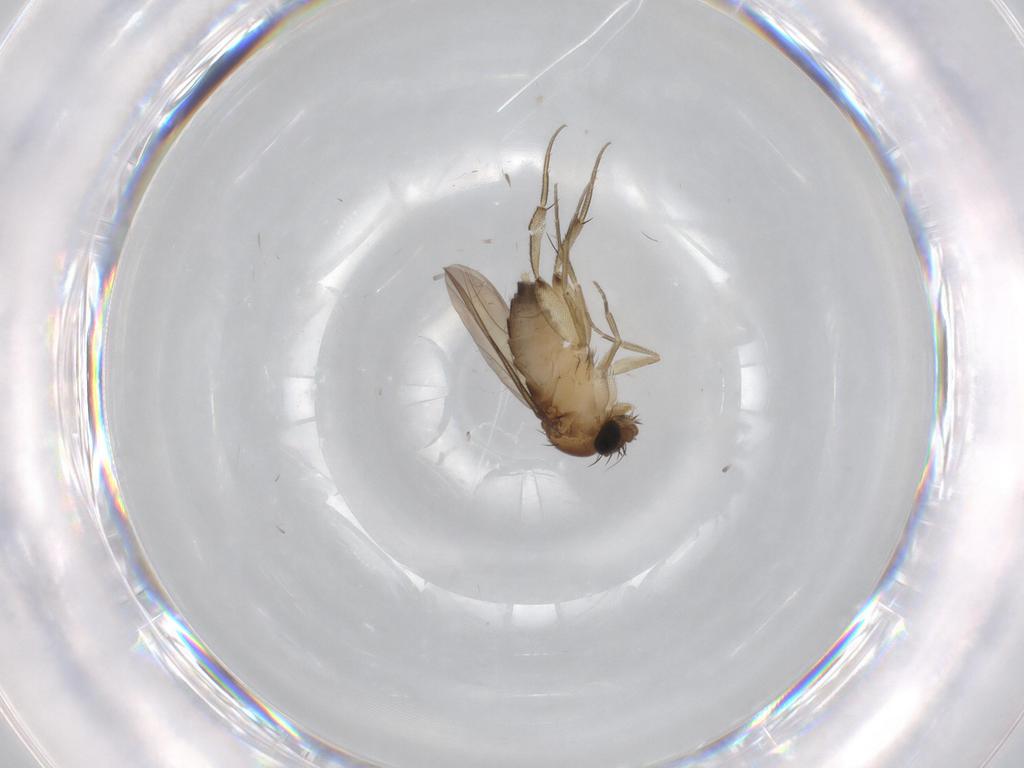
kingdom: Animalia
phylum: Arthropoda
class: Insecta
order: Diptera
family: Phoridae
